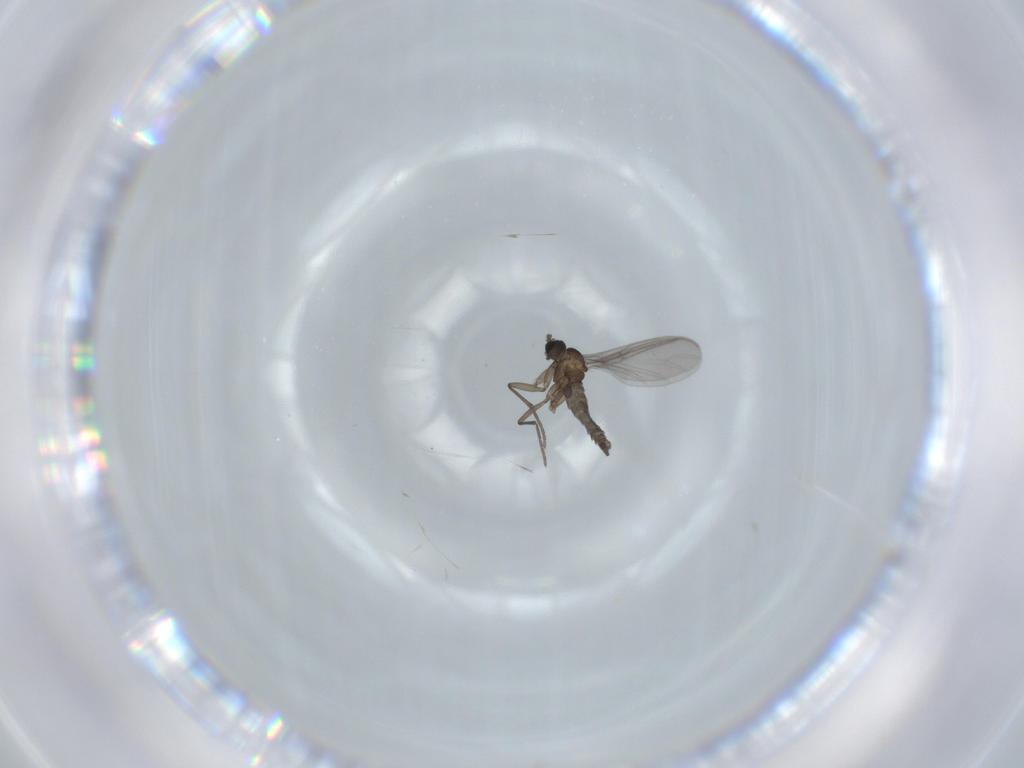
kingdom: Animalia
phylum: Arthropoda
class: Insecta
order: Diptera
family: Sciaridae
